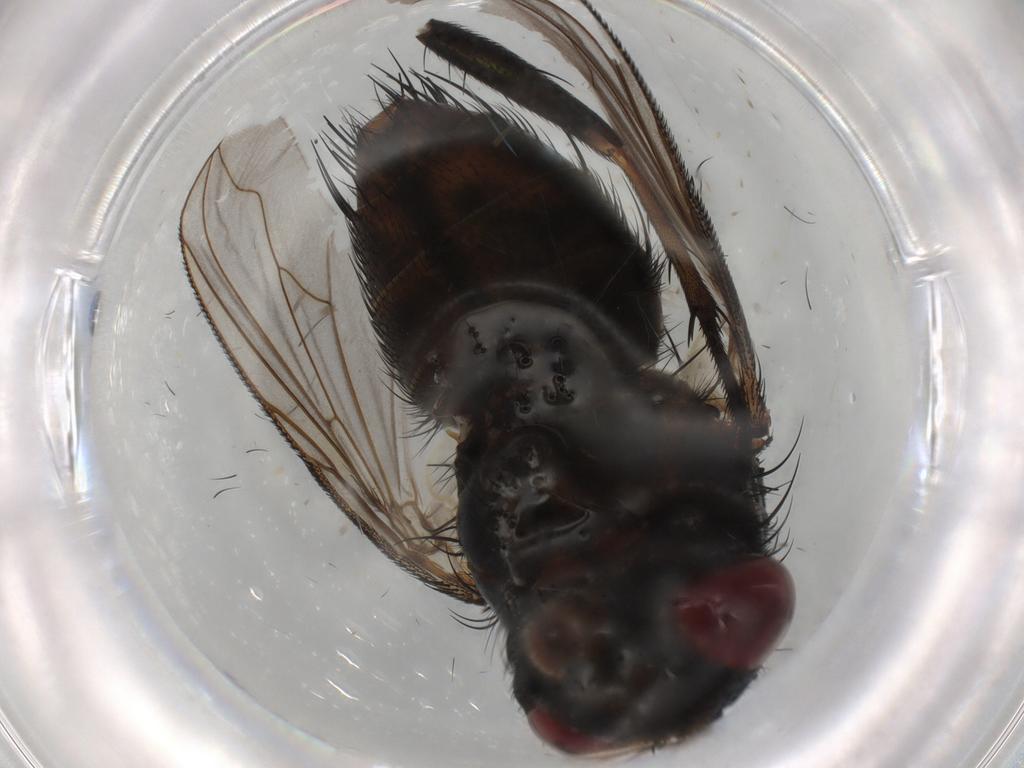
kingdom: Animalia
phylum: Arthropoda
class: Insecta
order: Diptera
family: Tachinidae
